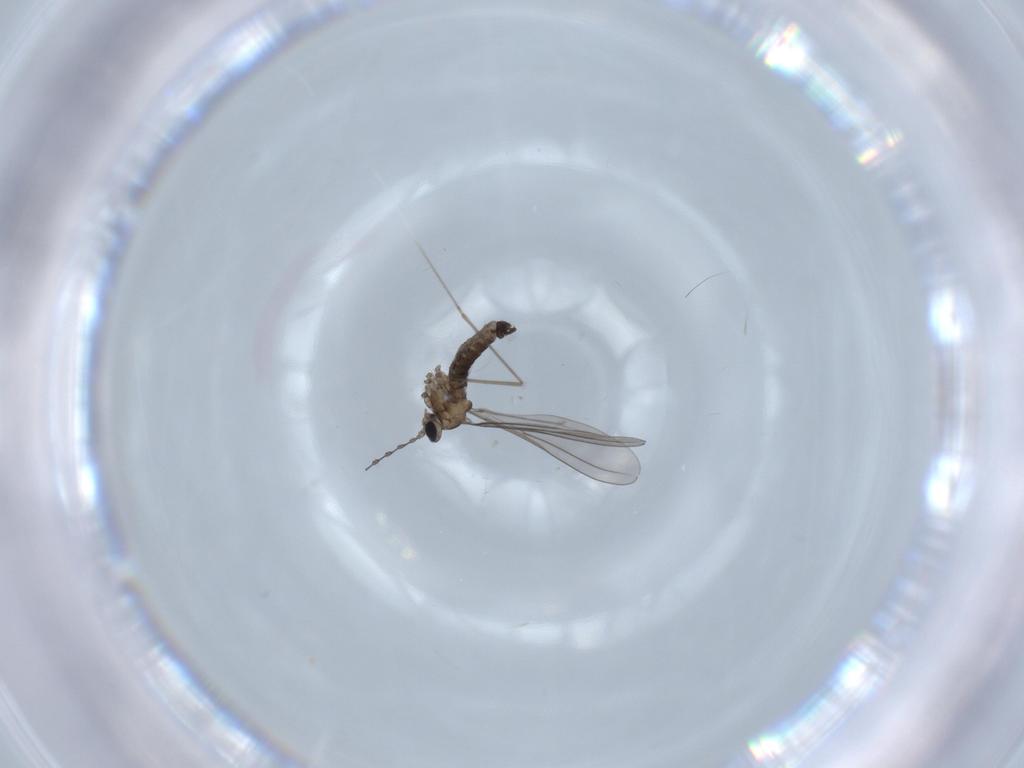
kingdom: Animalia
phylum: Arthropoda
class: Insecta
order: Diptera
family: Cecidomyiidae
